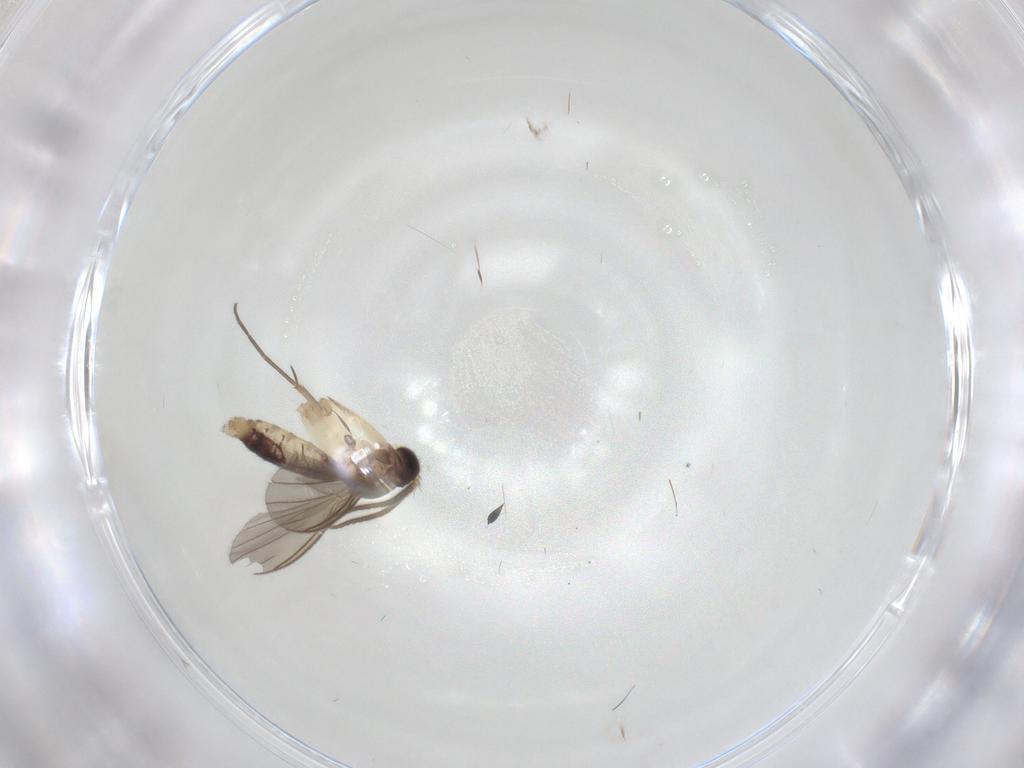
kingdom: Animalia
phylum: Arthropoda
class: Insecta
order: Diptera
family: Mycetophilidae
